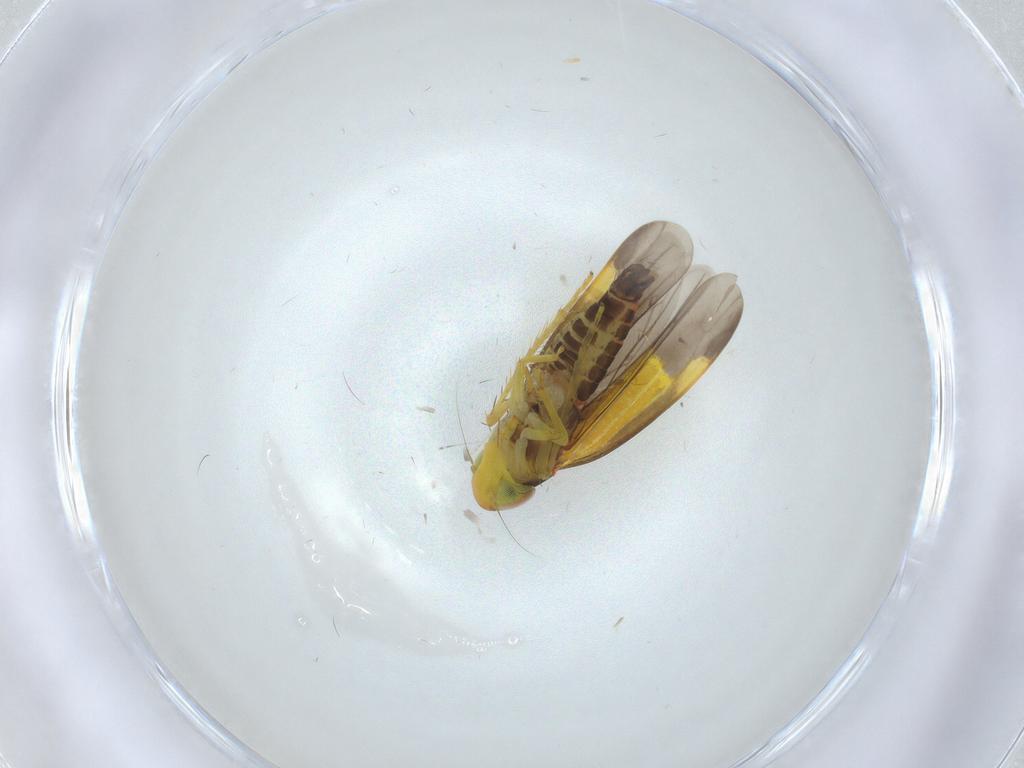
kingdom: Animalia
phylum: Arthropoda
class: Insecta
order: Hemiptera
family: Cicadellidae
